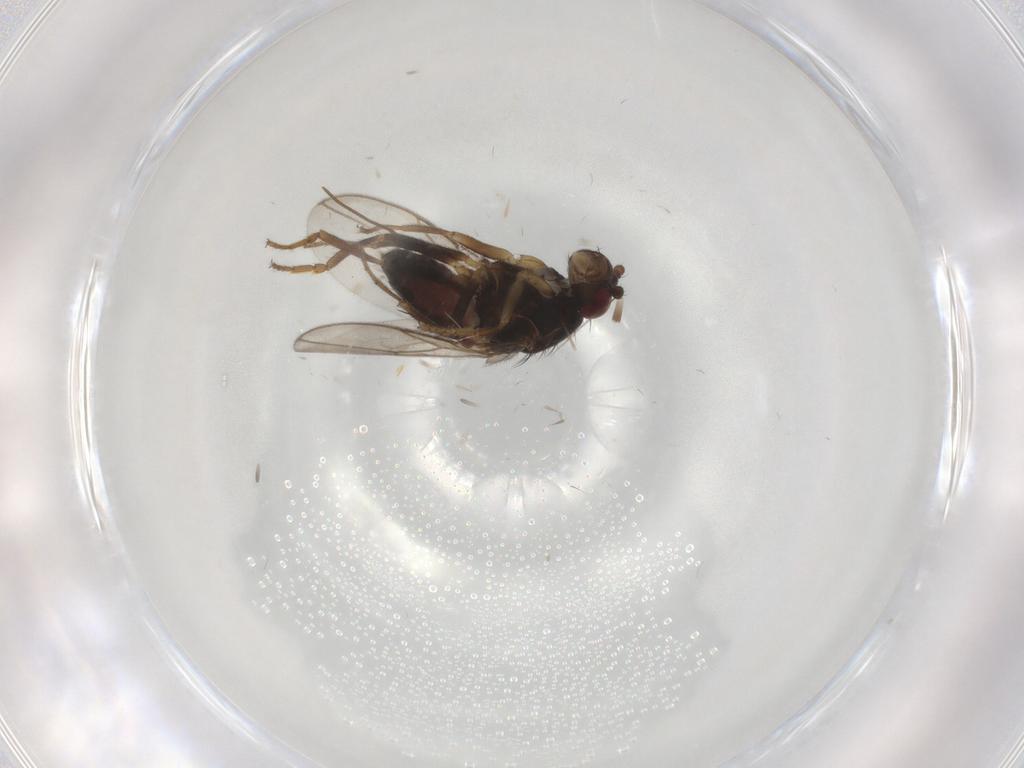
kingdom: Animalia
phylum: Arthropoda
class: Insecta
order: Diptera
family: Sphaeroceridae
